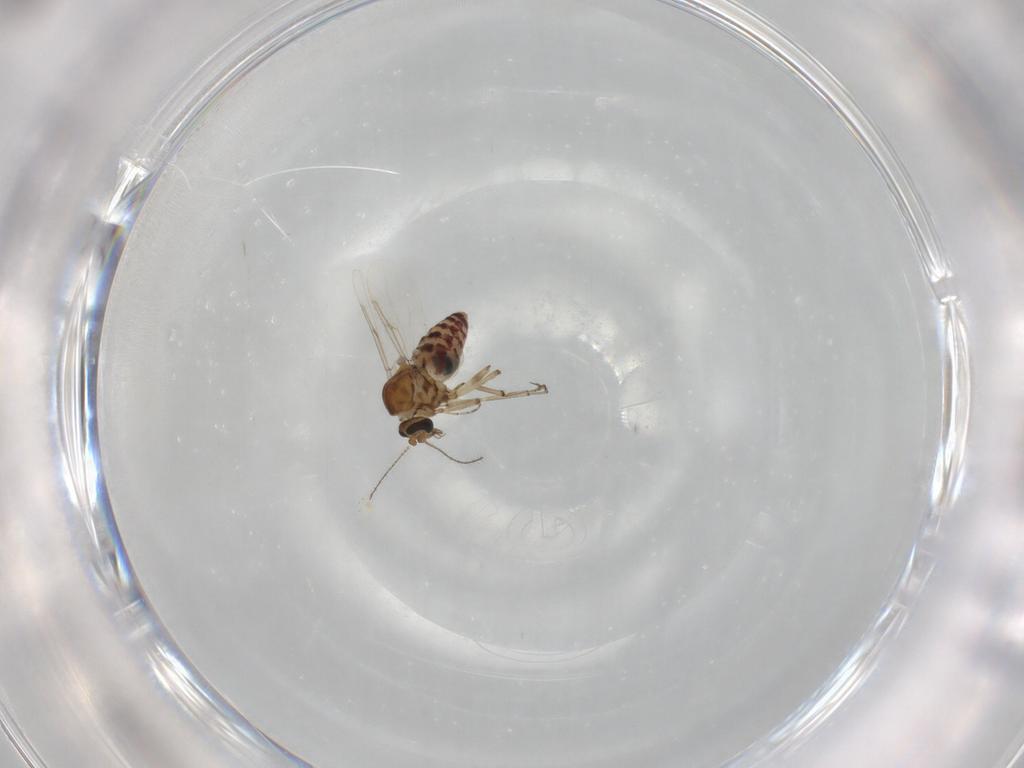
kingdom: Animalia
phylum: Arthropoda
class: Insecta
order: Diptera
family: Ceratopogonidae
